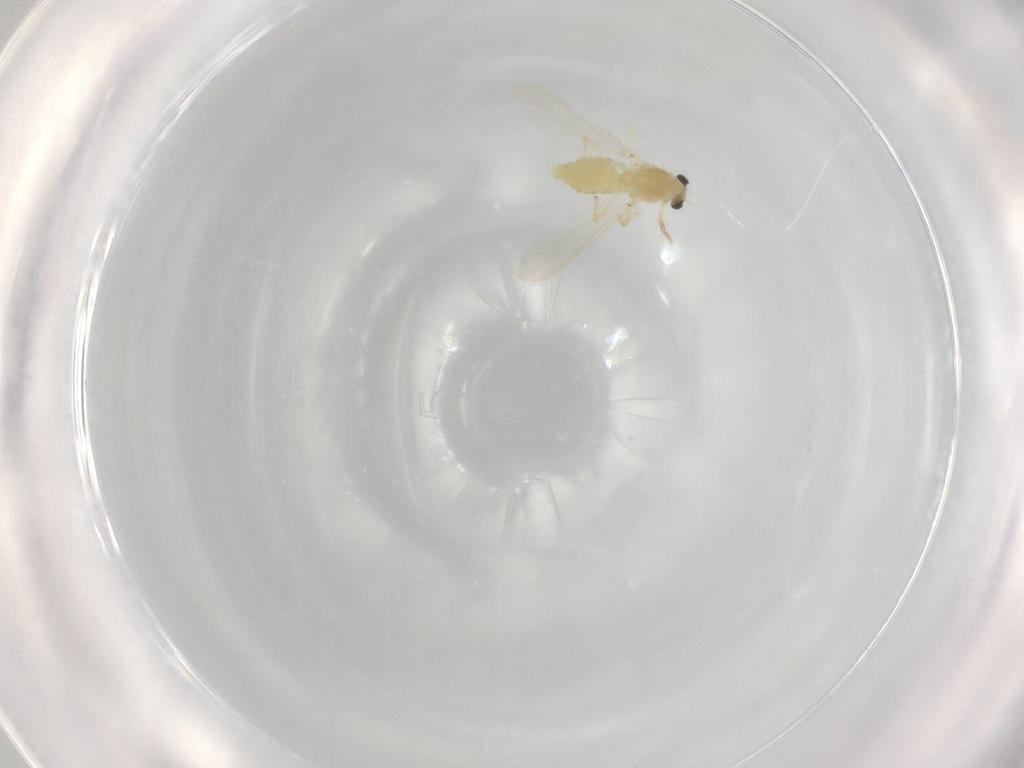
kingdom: Animalia
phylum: Arthropoda
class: Insecta
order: Diptera
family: Chironomidae
